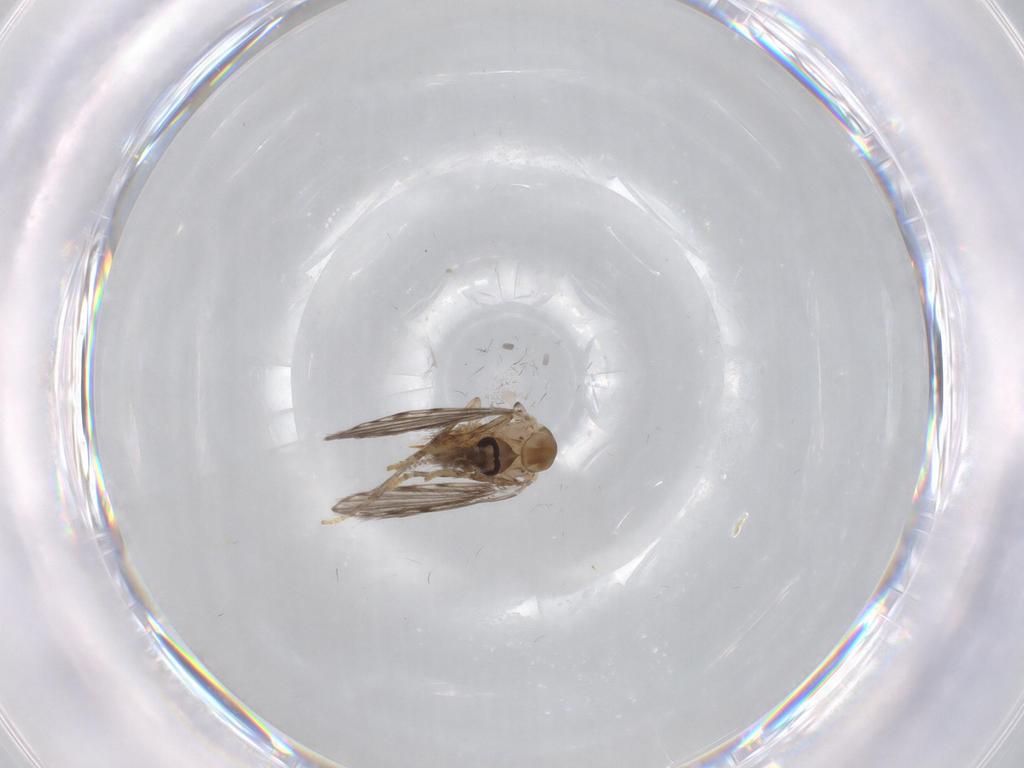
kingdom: Animalia
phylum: Arthropoda
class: Insecta
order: Diptera
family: Psychodidae
